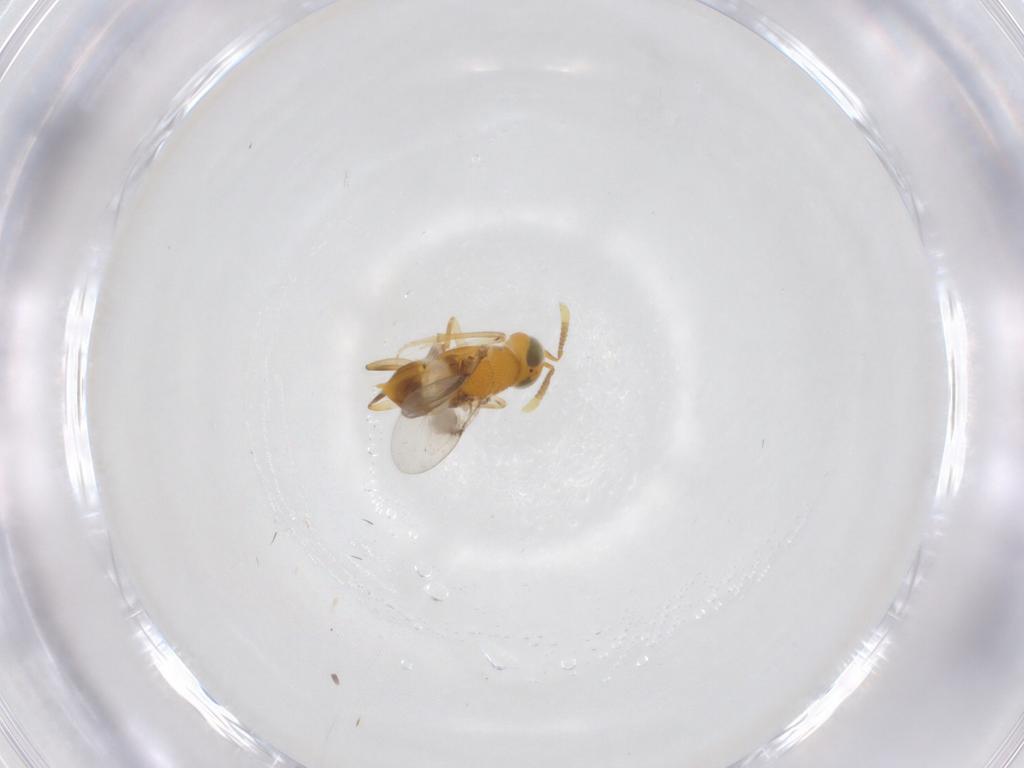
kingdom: Animalia
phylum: Arthropoda
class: Insecta
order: Hymenoptera
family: Encyrtidae
